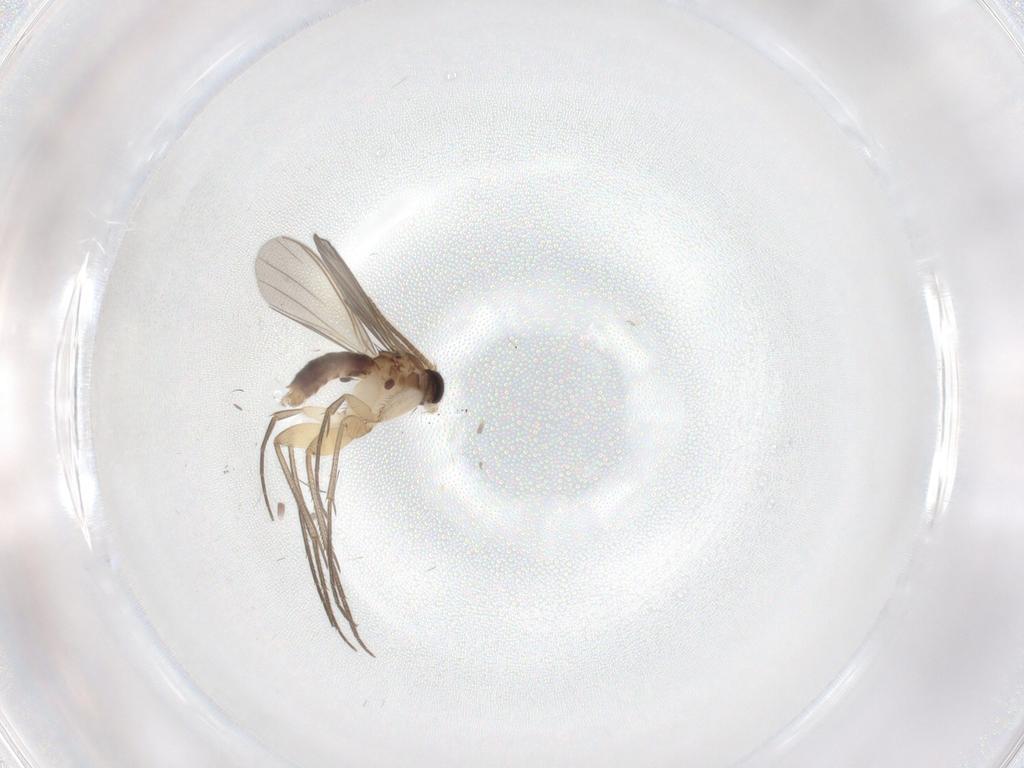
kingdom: Animalia
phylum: Arthropoda
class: Insecta
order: Diptera
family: Mycetophilidae
